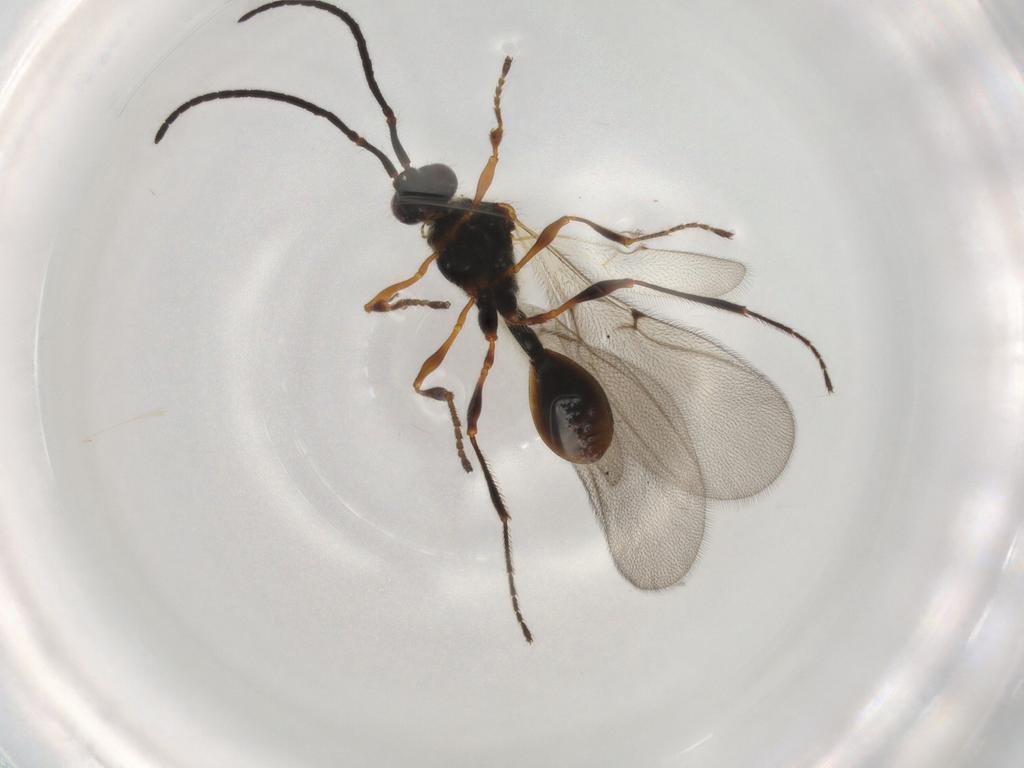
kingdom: Animalia
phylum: Arthropoda
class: Insecta
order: Hymenoptera
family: Diapriidae
